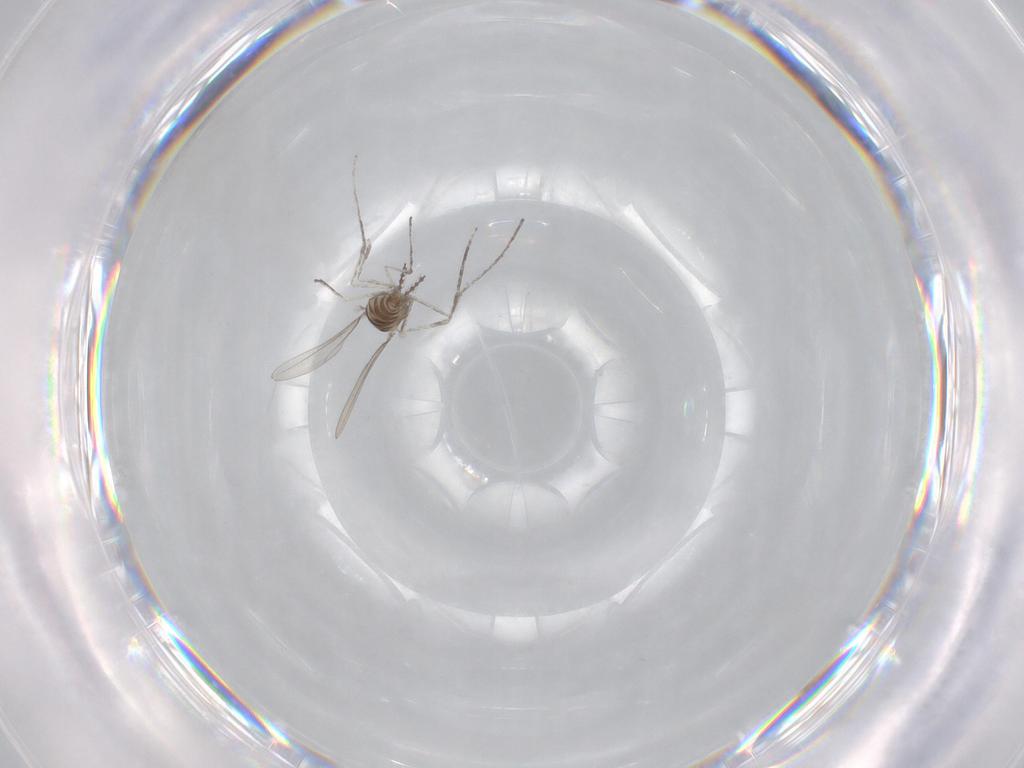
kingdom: Animalia
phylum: Arthropoda
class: Insecta
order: Diptera
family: Cecidomyiidae
